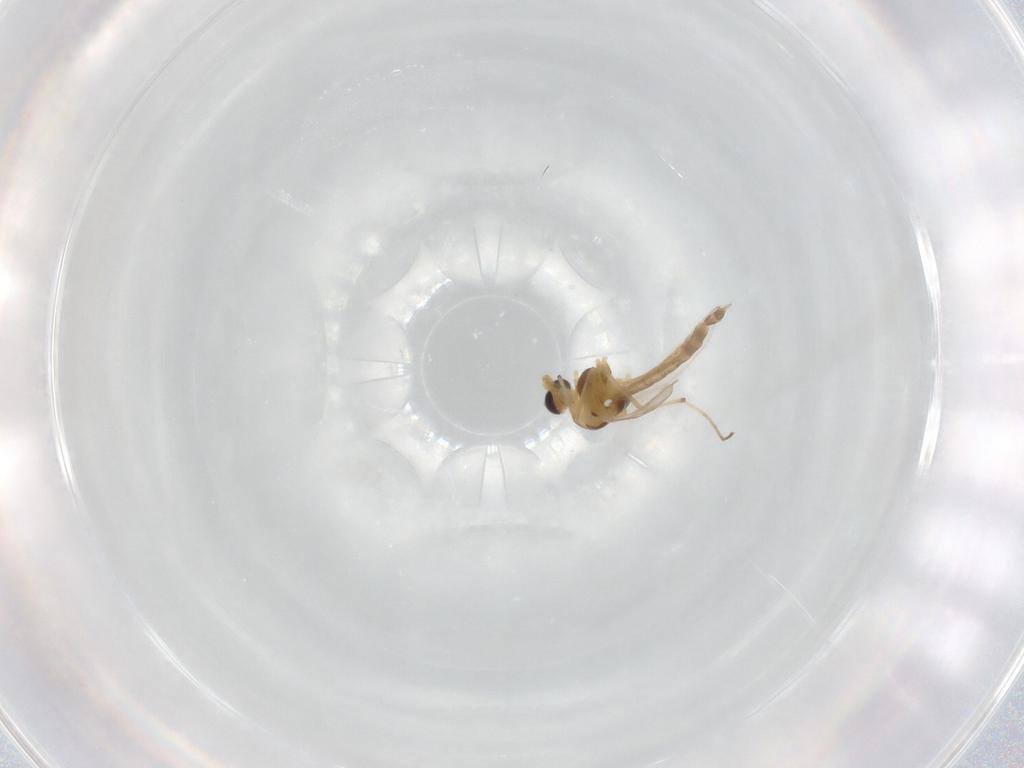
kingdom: Animalia
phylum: Arthropoda
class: Insecta
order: Diptera
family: Chironomidae
